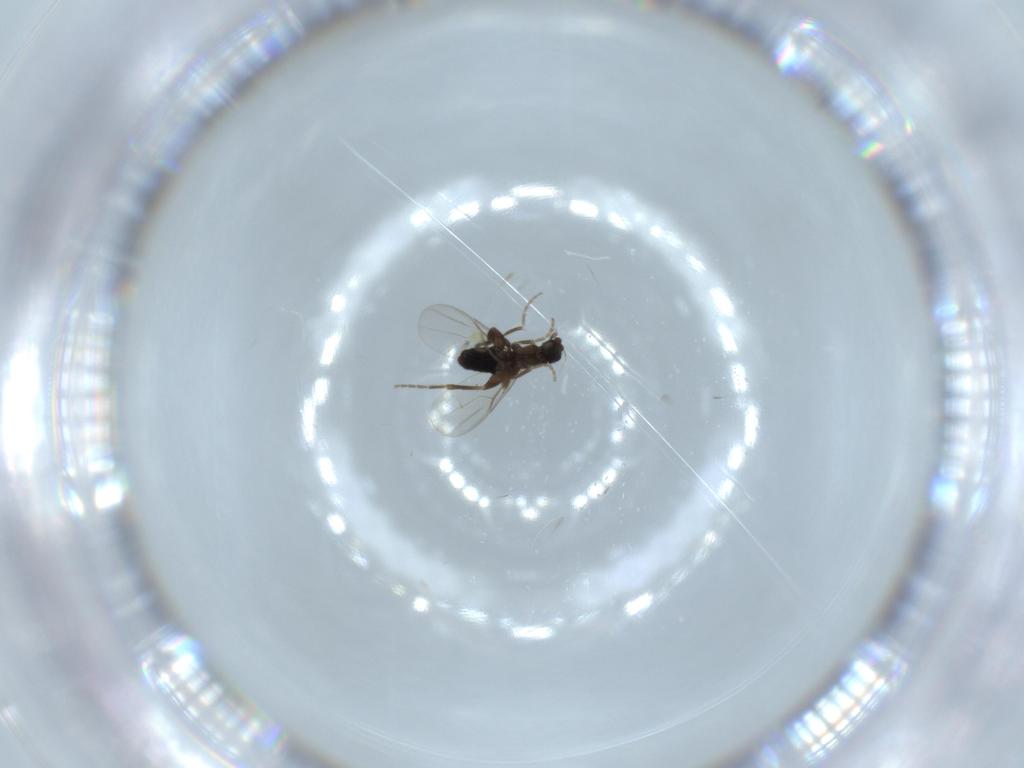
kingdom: Animalia
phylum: Arthropoda
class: Insecta
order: Diptera
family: Phoridae
